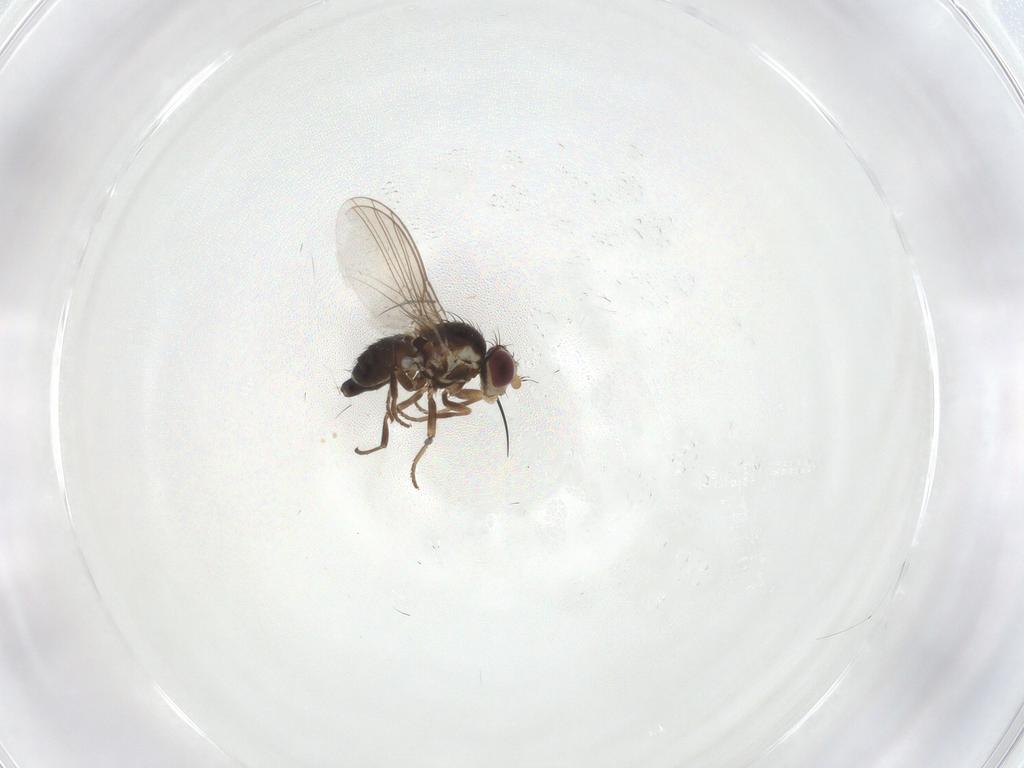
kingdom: Animalia
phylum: Arthropoda
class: Insecta
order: Diptera
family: Agromyzidae
